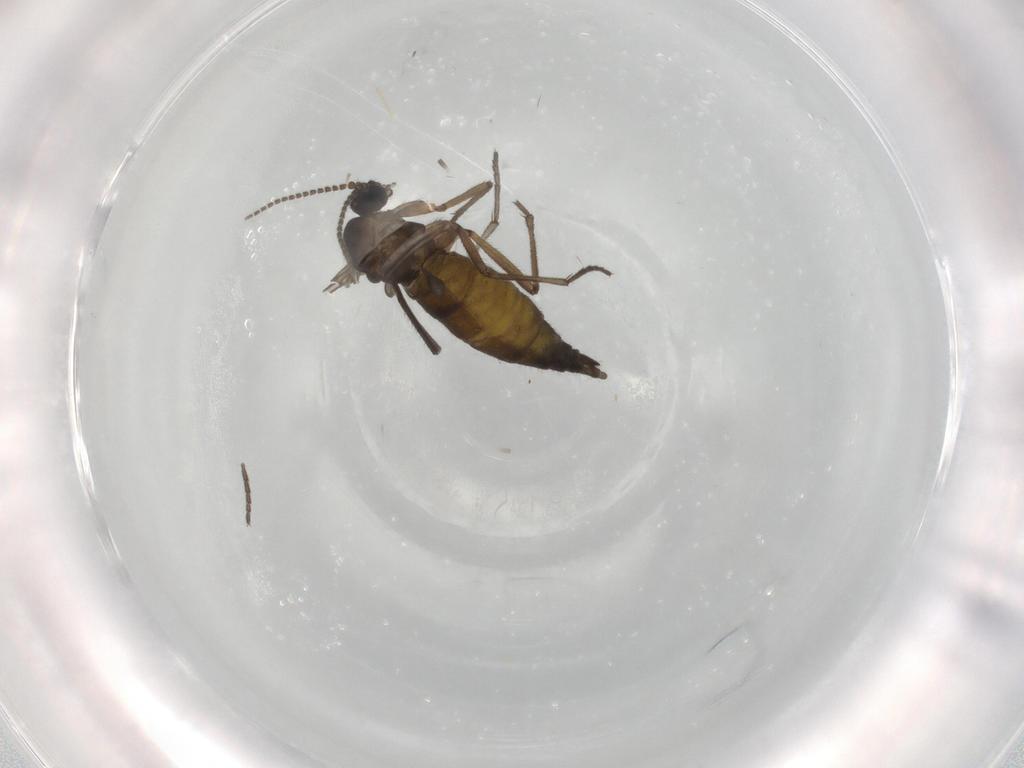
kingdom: Animalia
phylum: Arthropoda
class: Insecta
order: Diptera
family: Sciaridae
